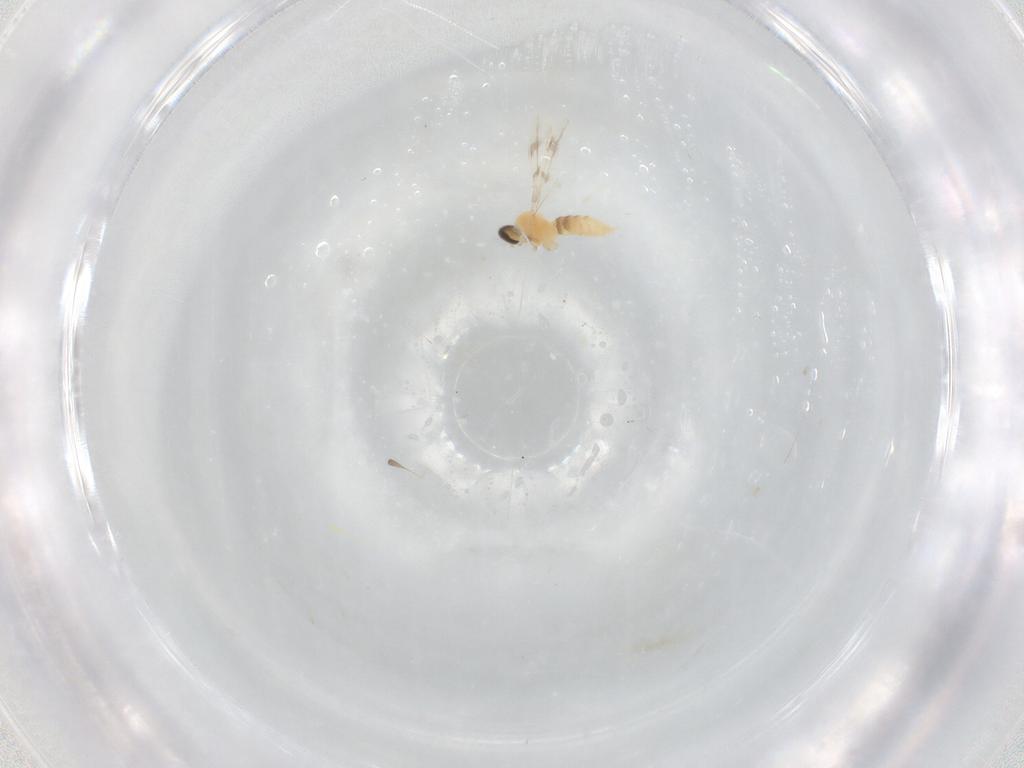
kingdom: Animalia
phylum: Arthropoda
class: Insecta
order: Diptera
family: Cecidomyiidae
